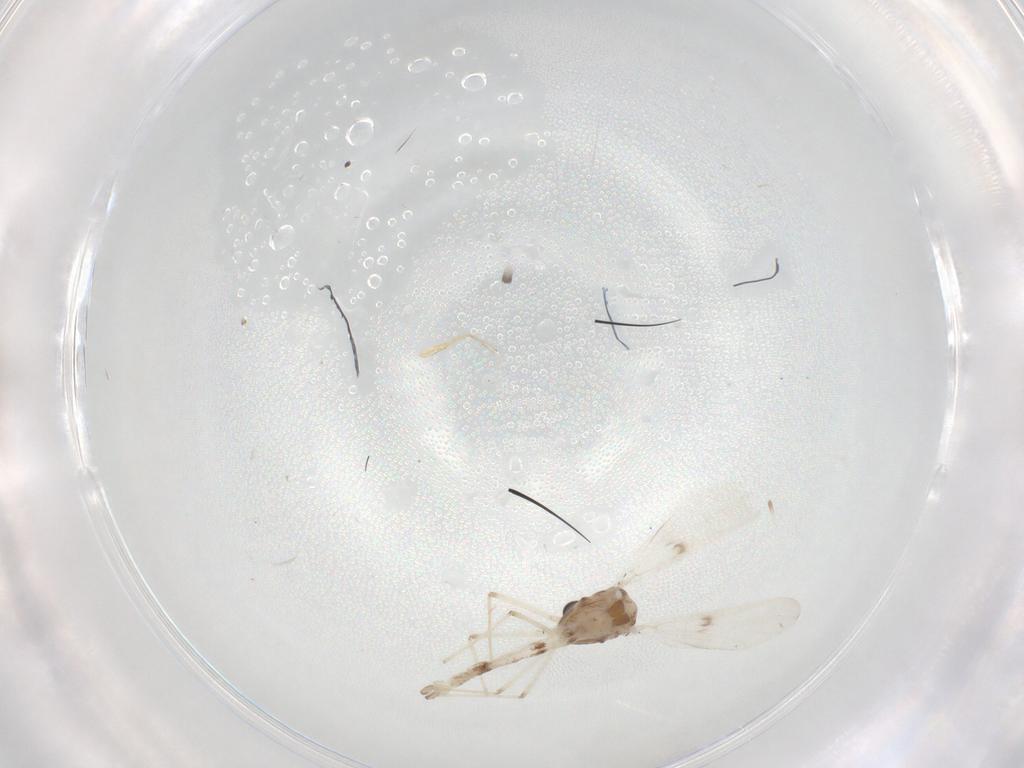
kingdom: Animalia
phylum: Arthropoda
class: Insecta
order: Diptera
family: Chironomidae
